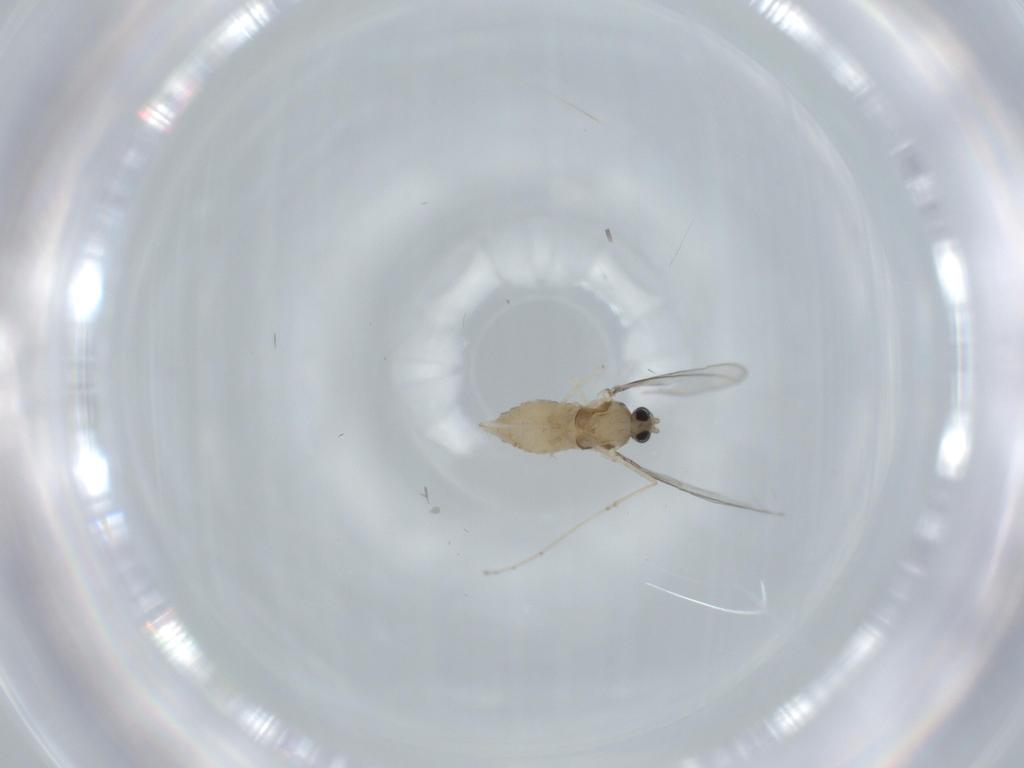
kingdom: Animalia
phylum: Arthropoda
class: Insecta
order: Diptera
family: Cecidomyiidae
